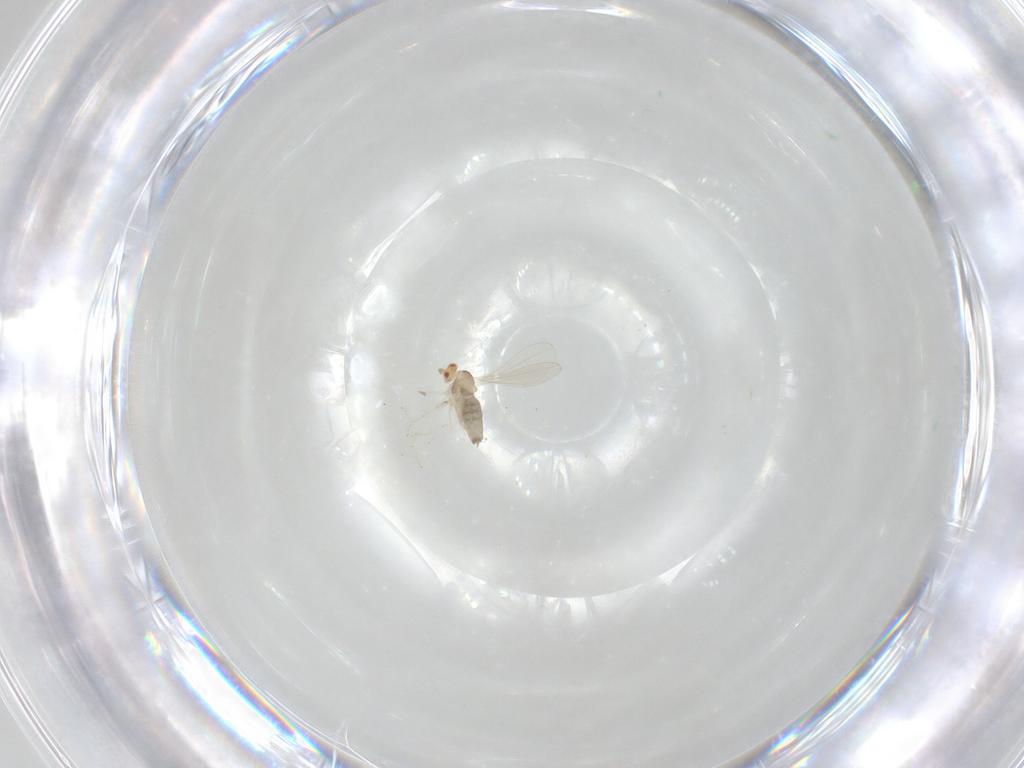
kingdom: Animalia
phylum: Arthropoda
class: Insecta
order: Diptera
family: Cecidomyiidae
